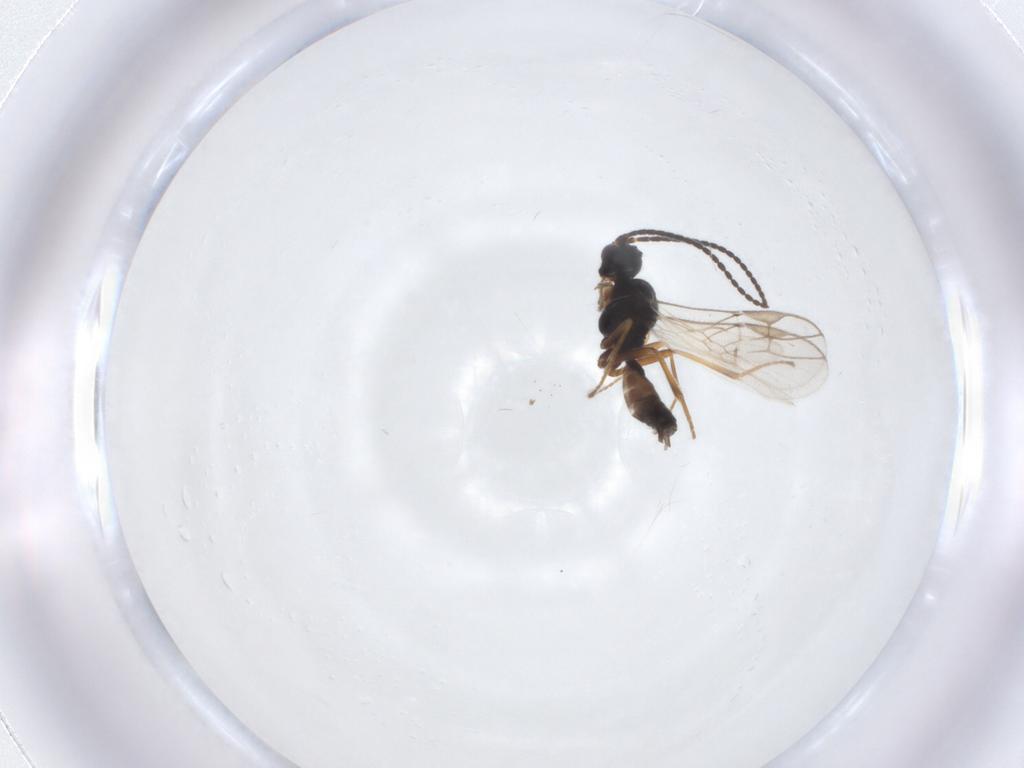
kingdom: Animalia
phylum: Arthropoda
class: Insecta
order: Hymenoptera
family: Braconidae
